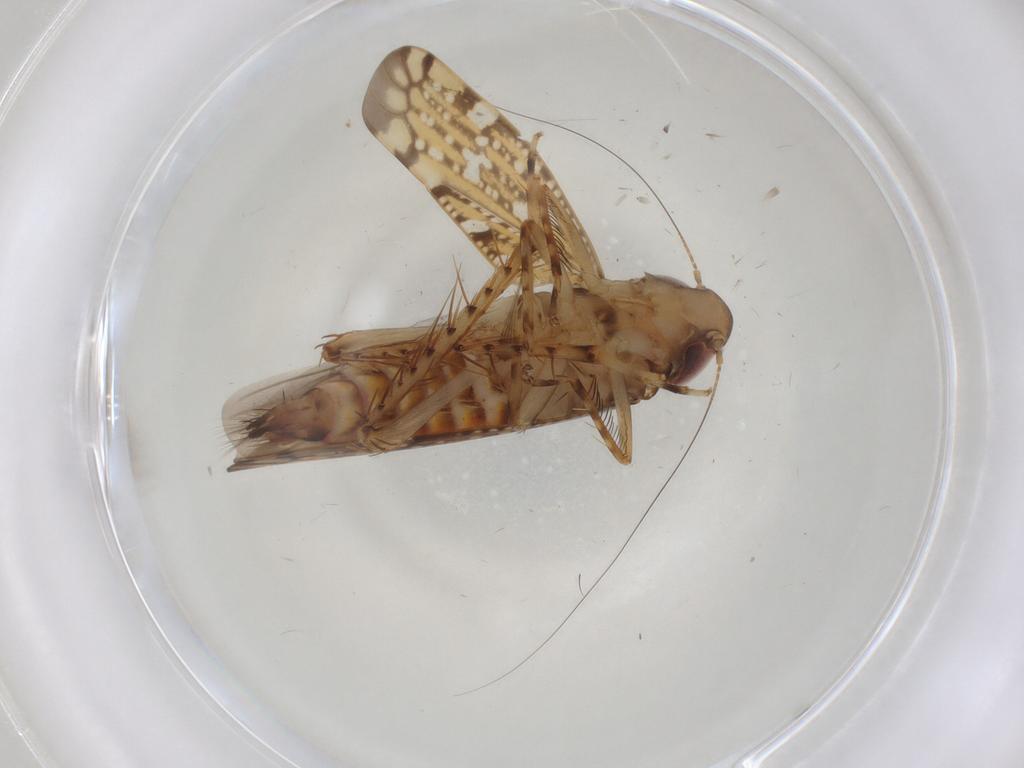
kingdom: Animalia
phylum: Arthropoda
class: Insecta
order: Hemiptera
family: Cicadellidae
